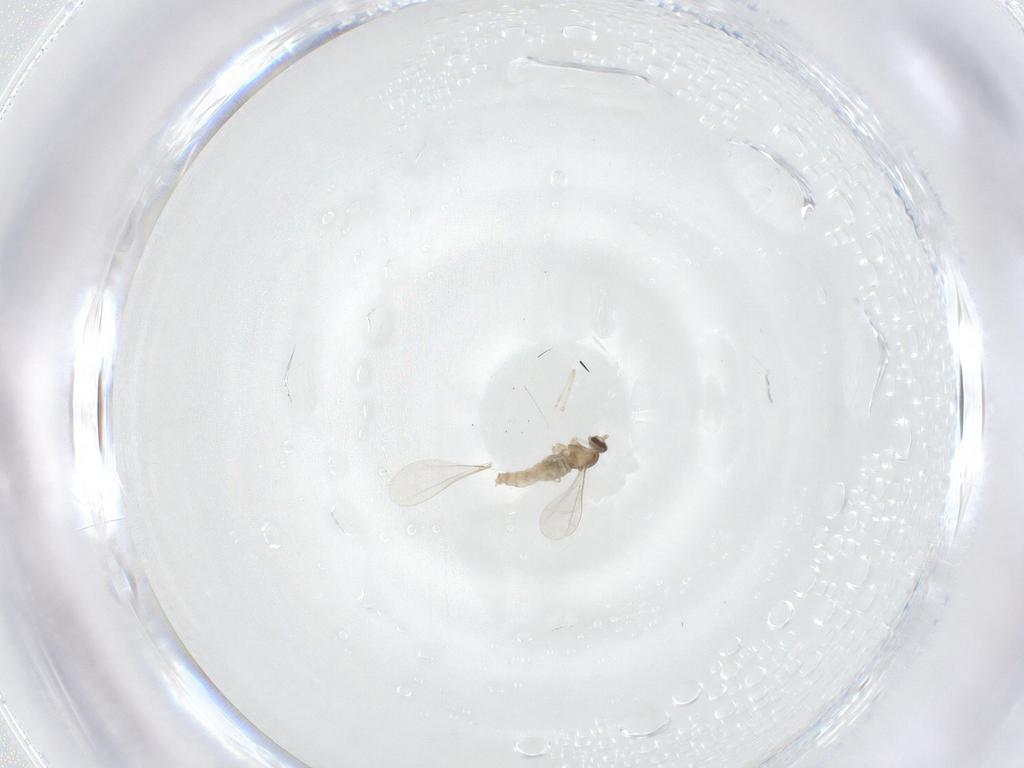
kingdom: Animalia
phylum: Arthropoda
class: Insecta
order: Diptera
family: Cecidomyiidae
